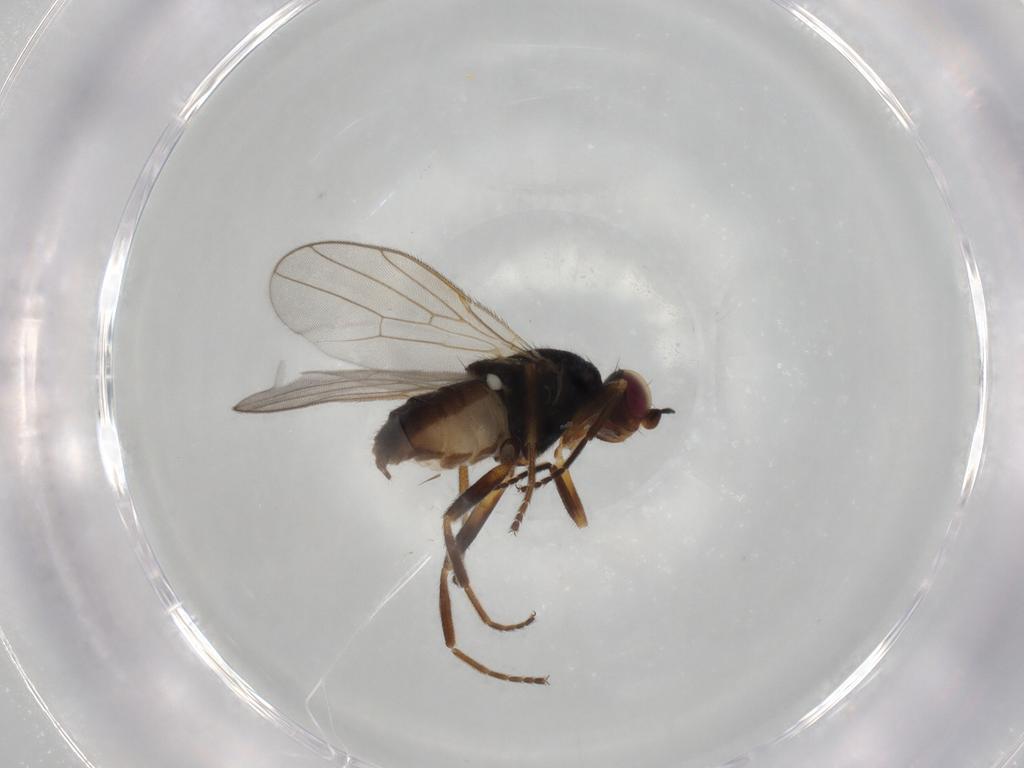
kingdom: Animalia
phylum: Arthropoda
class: Insecta
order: Diptera
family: Chloropidae
